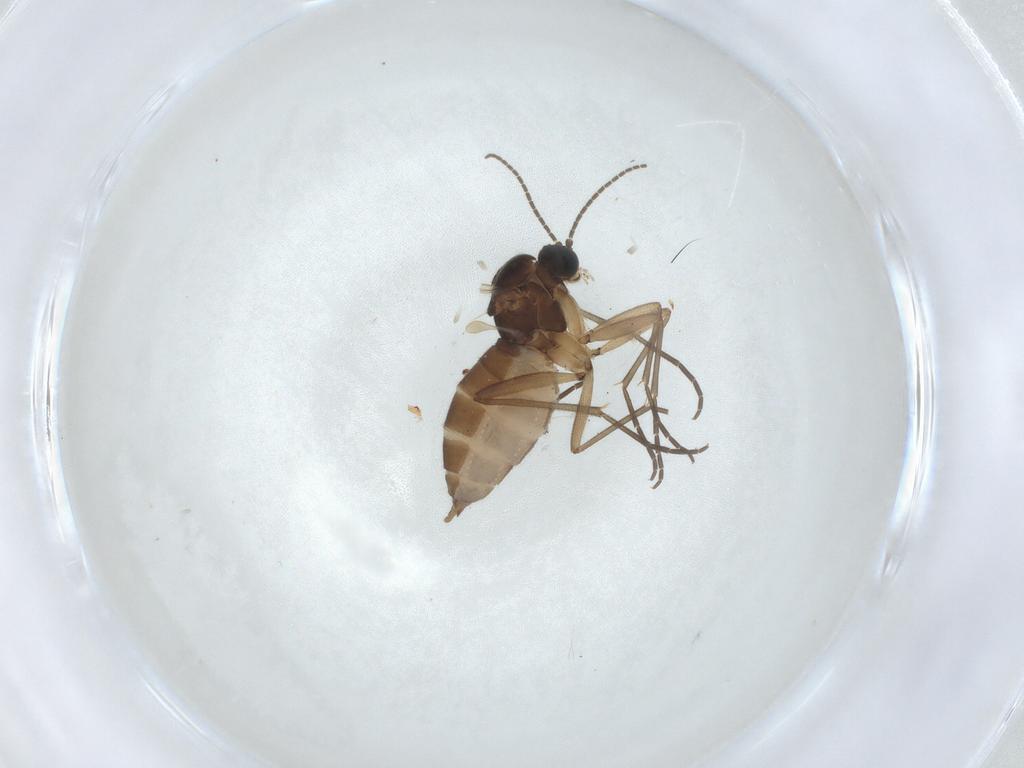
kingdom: Animalia
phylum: Arthropoda
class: Insecta
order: Diptera
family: Sciaridae
